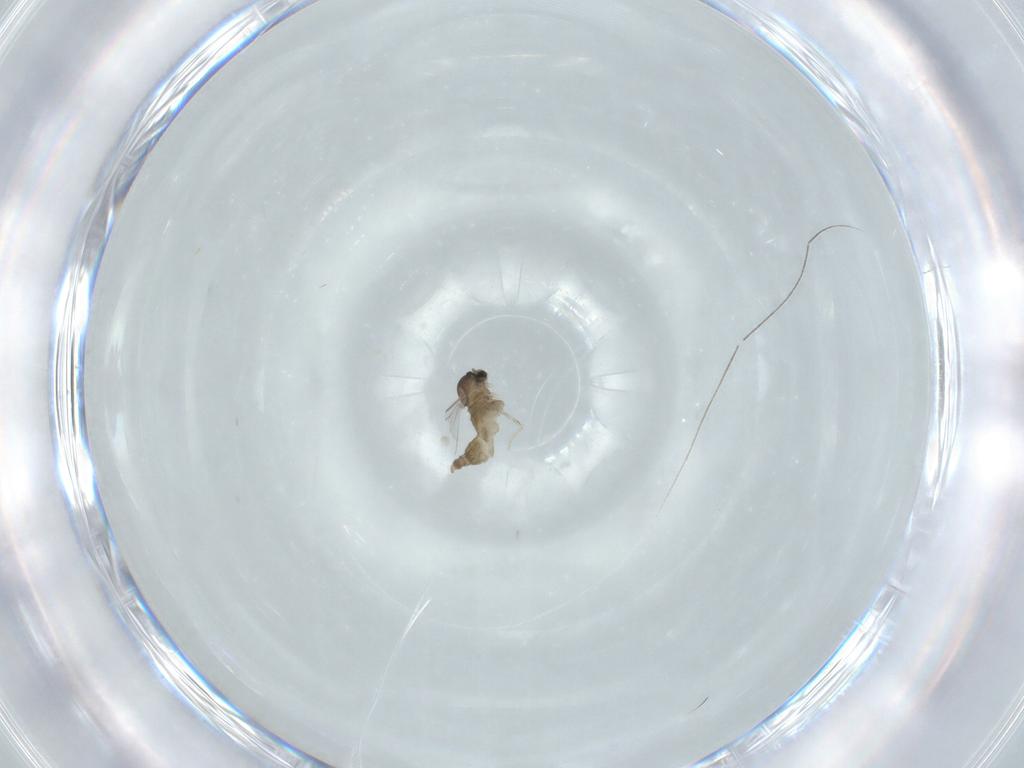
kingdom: Animalia
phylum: Arthropoda
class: Insecta
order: Diptera
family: Cecidomyiidae
